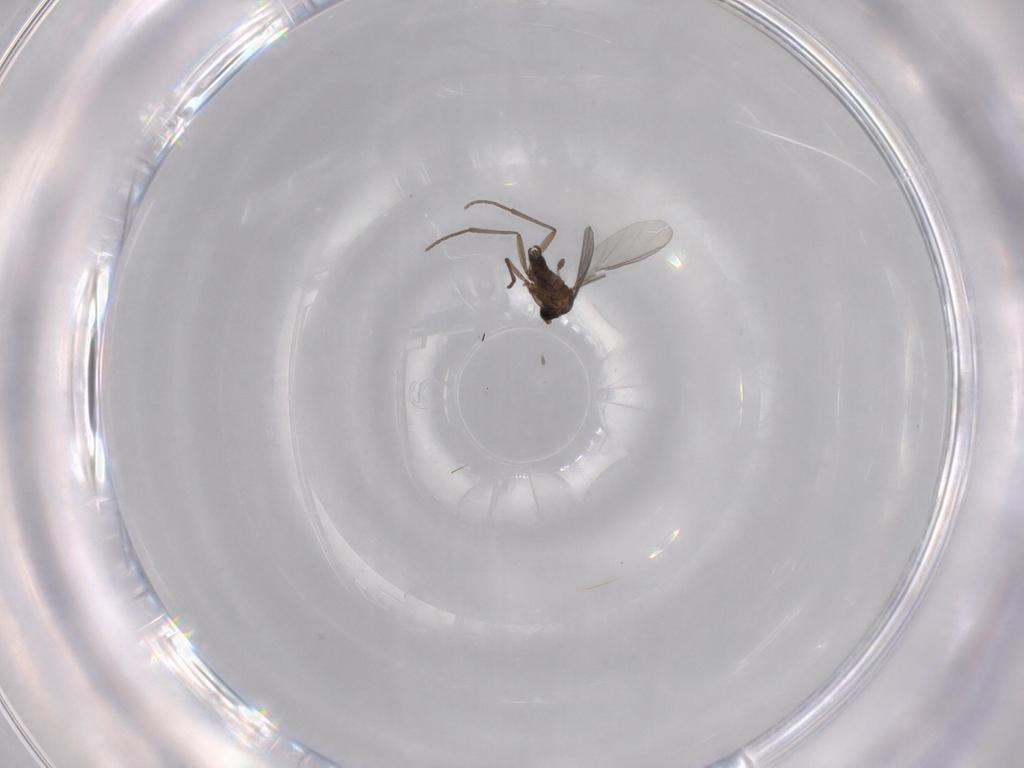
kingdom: Animalia
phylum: Arthropoda
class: Insecta
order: Diptera
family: Sciaridae
